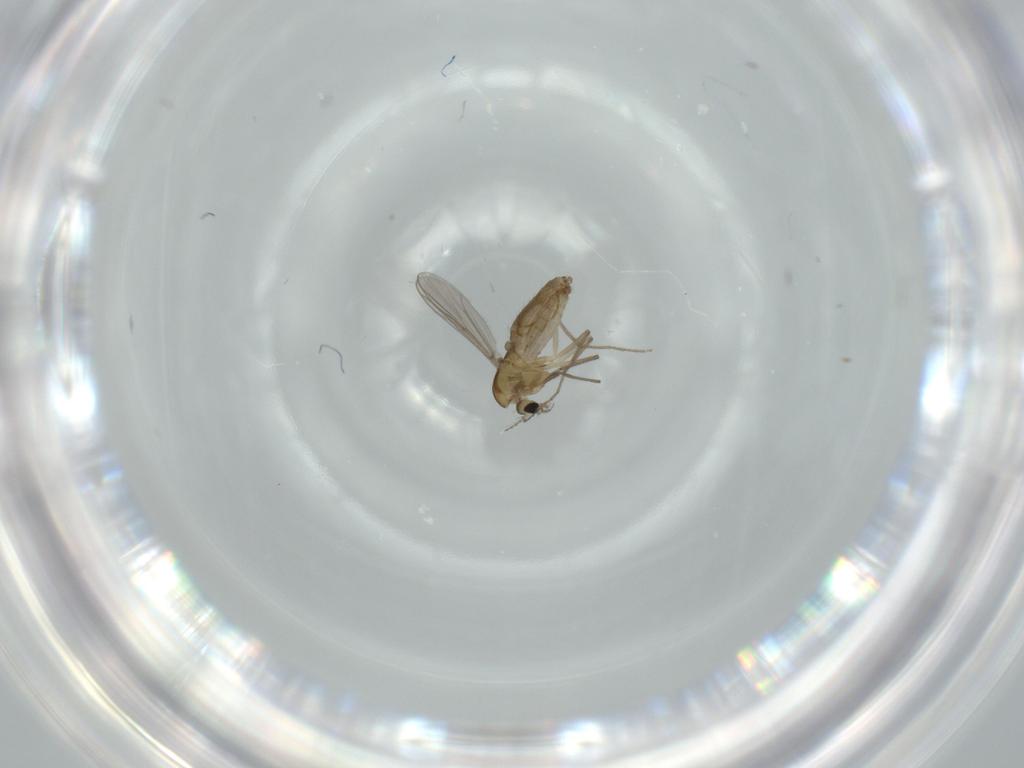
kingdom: Animalia
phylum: Arthropoda
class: Insecta
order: Diptera
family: Chironomidae
